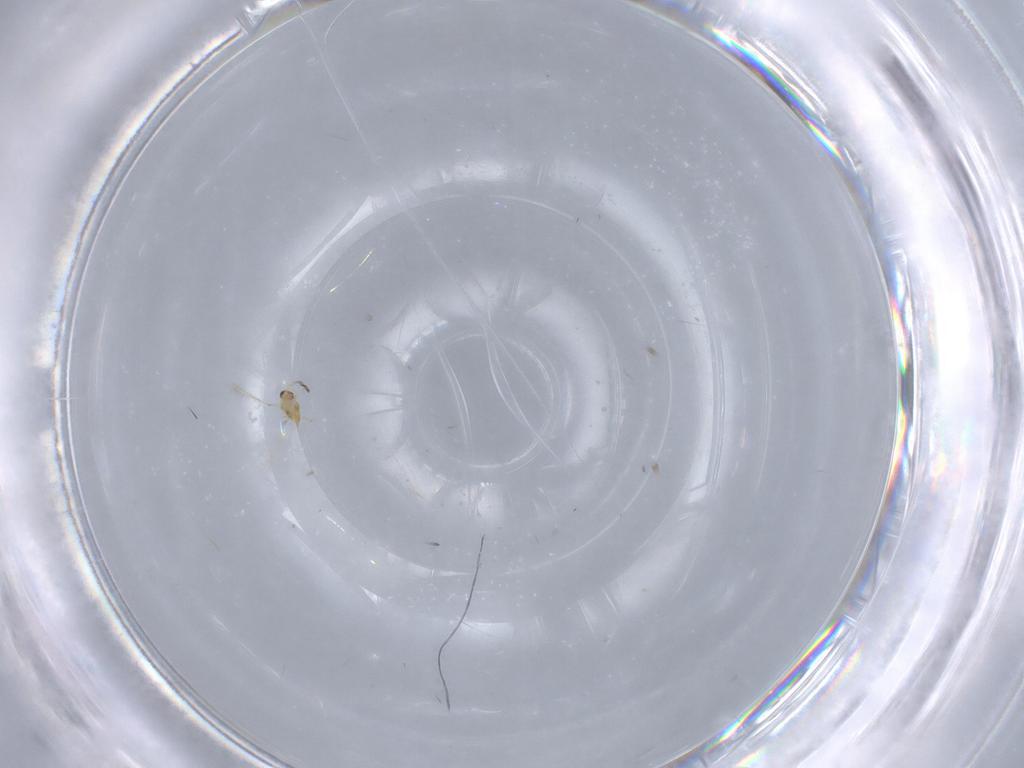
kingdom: Animalia
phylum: Arthropoda
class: Insecta
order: Hymenoptera
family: Mymaridae
